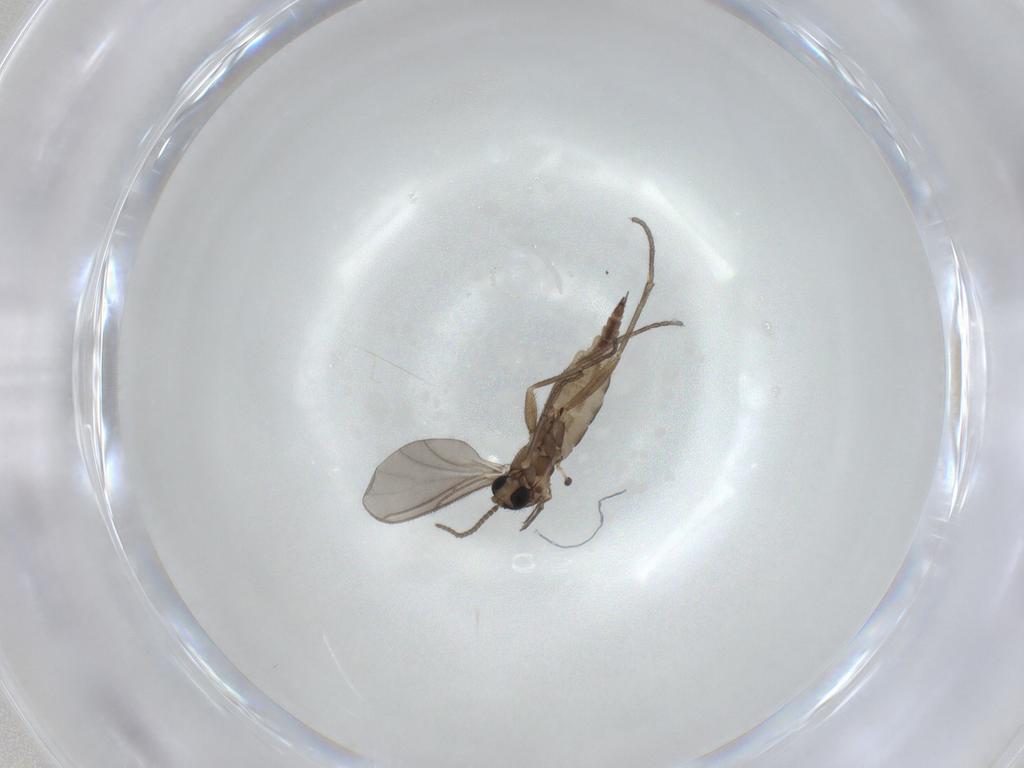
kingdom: Animalia
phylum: Arthropoda
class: Insecta
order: Diptera
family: Sciaridae
